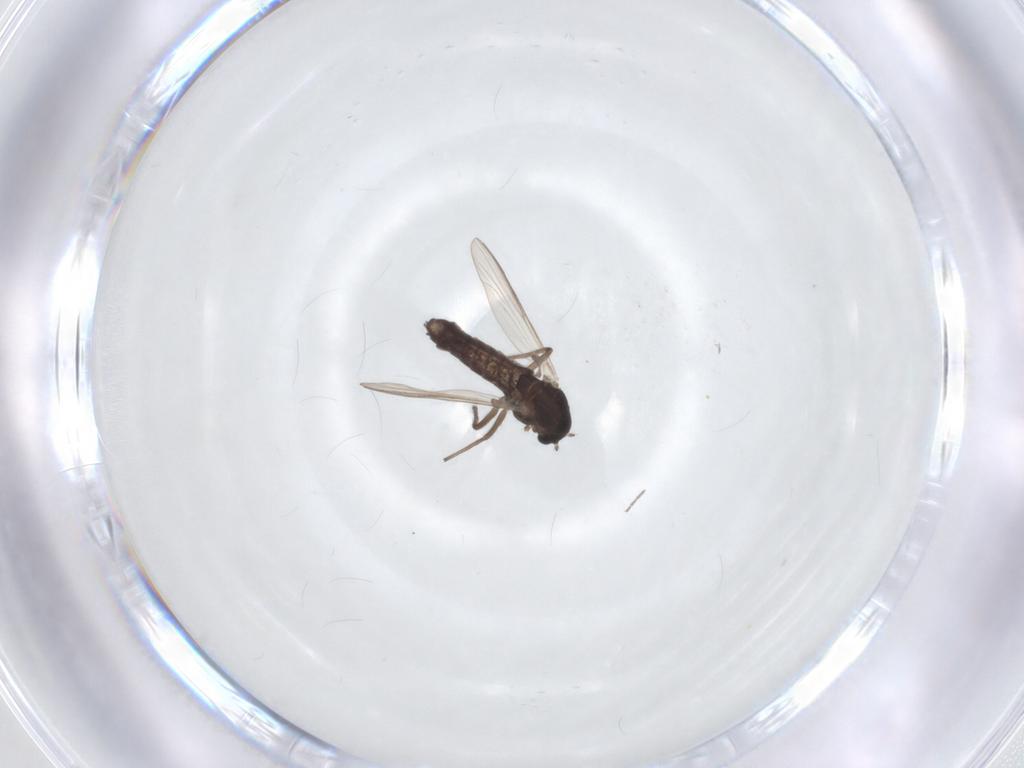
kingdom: Animalia
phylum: Arthropoda
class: Insecta
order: Diptera
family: Chironomidae
